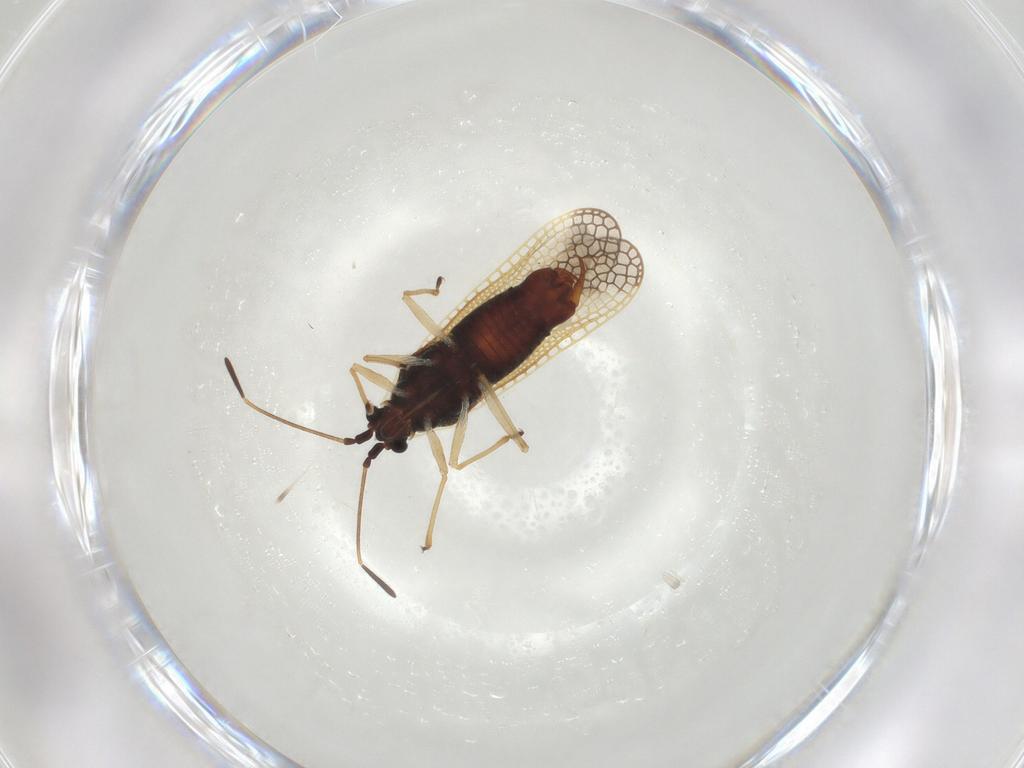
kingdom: Animalia
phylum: Arthropoda
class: Insecta
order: Hemiptera
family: Tingidae
